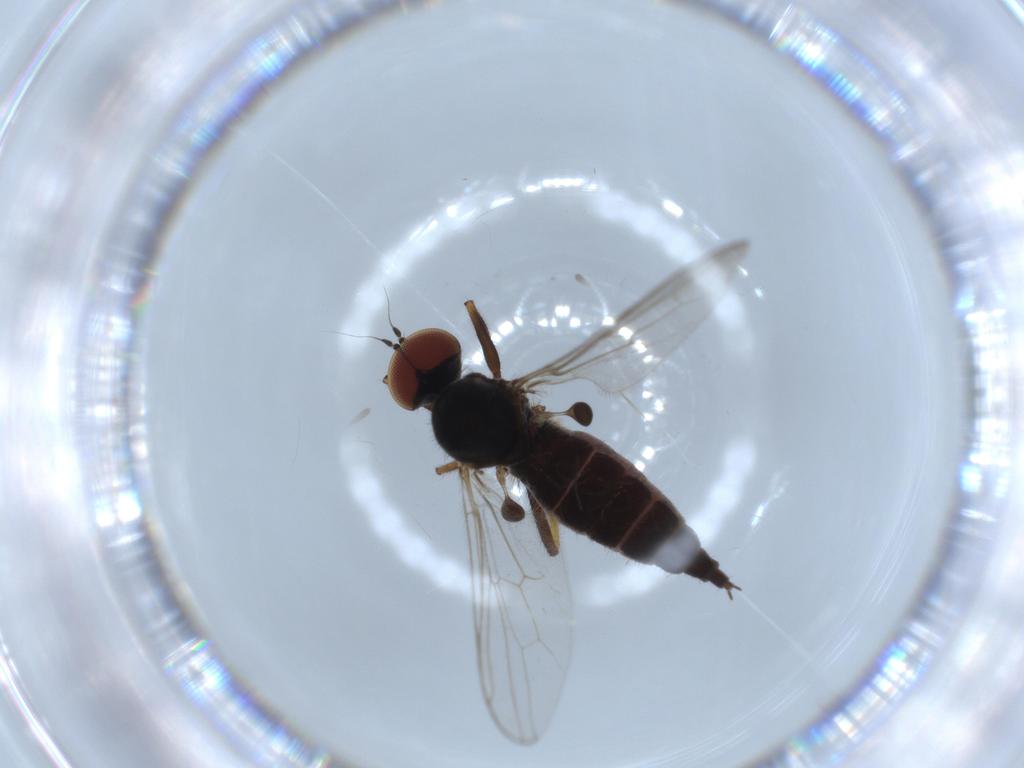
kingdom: Animalia
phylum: Arthropoda
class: Insecta
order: Diptera
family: Hybotidae
